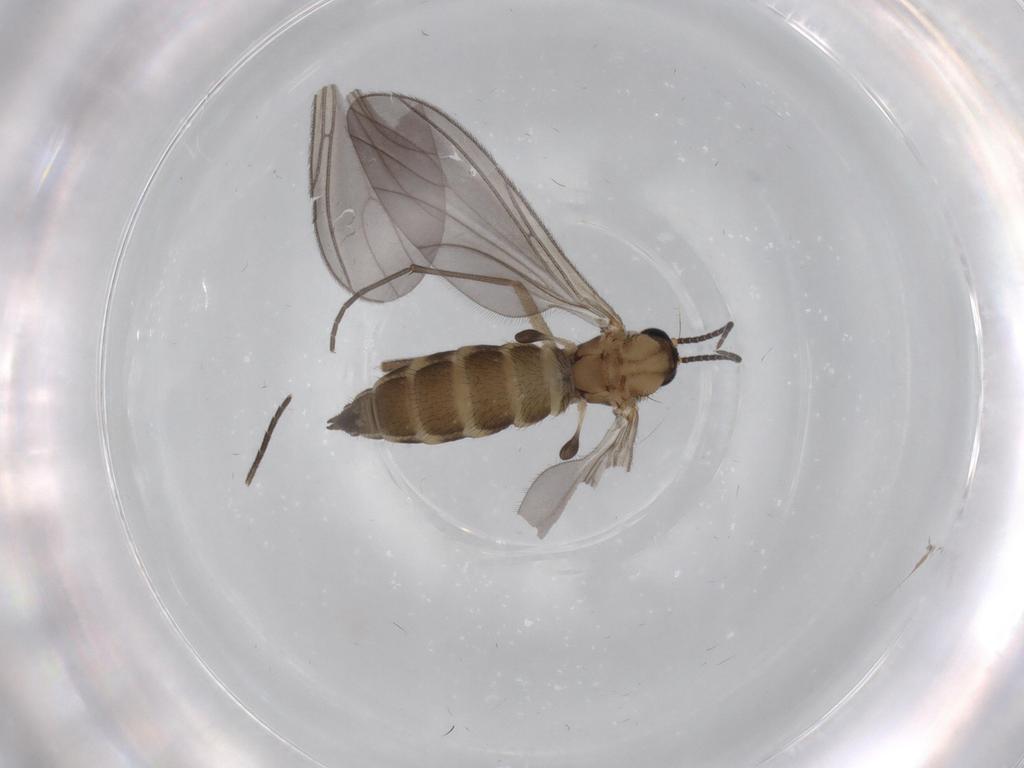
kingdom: Animalia
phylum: Arthropoda
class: Insecta
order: Diptera
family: Sciaridae
